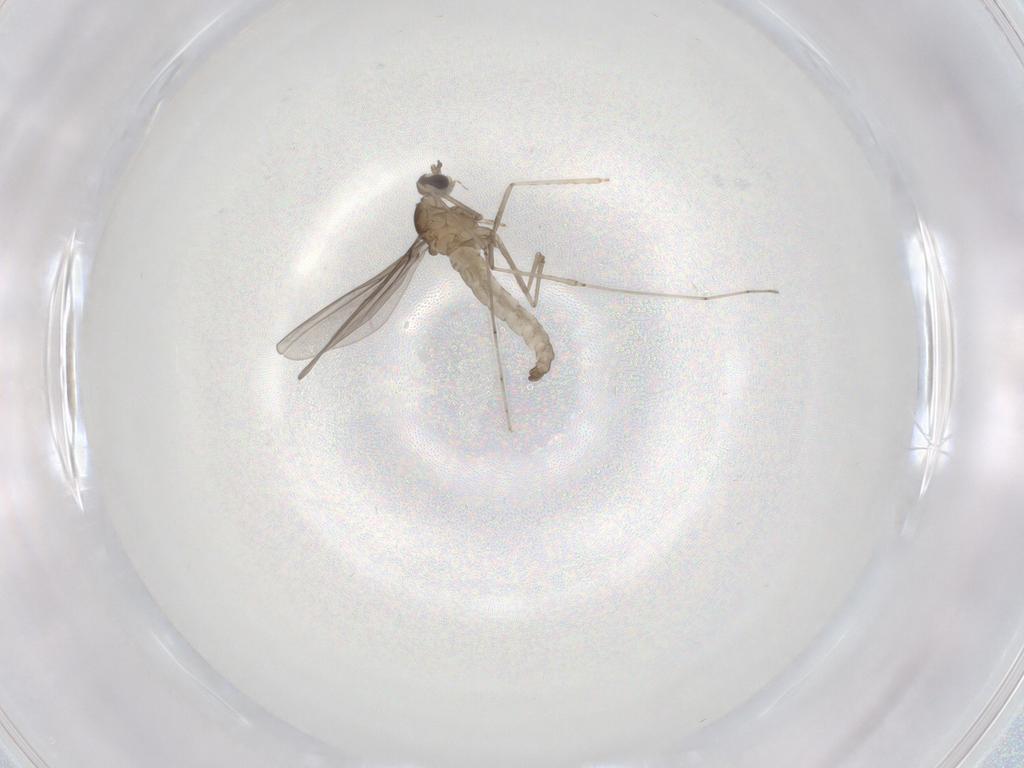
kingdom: Animalia
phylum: Arthropoda
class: Insecta
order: Diptera
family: Cecidomyiidae
